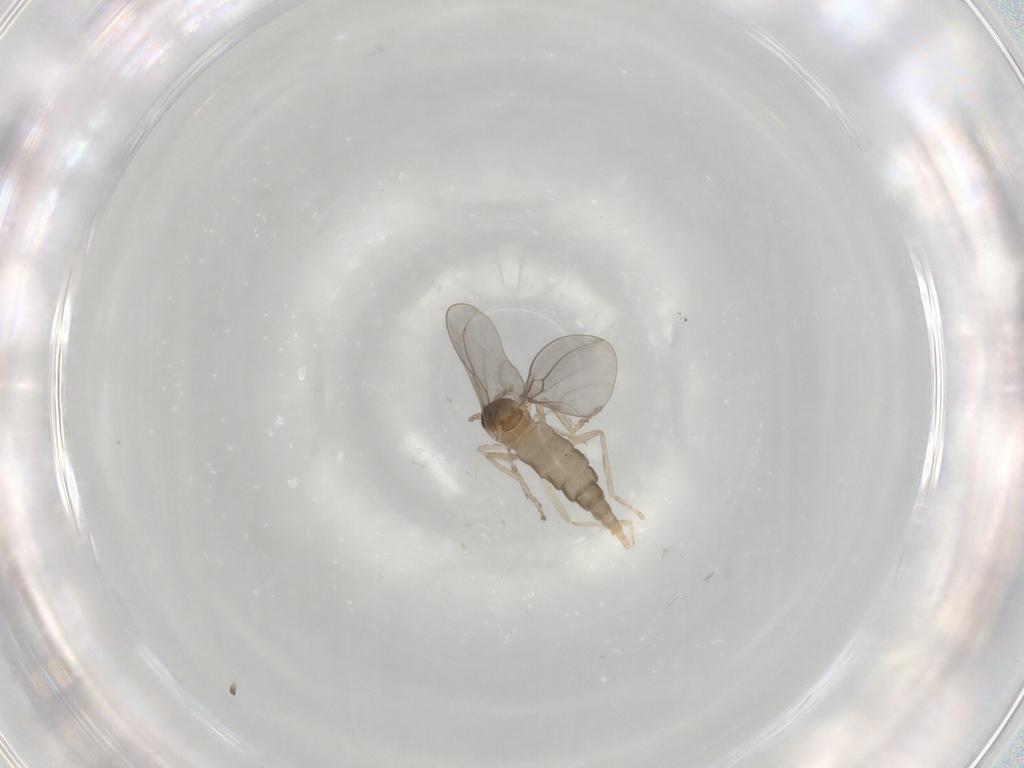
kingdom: Animalia
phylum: Arthropoda
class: Insecta
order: Diptera
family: Cecidomyiidae
